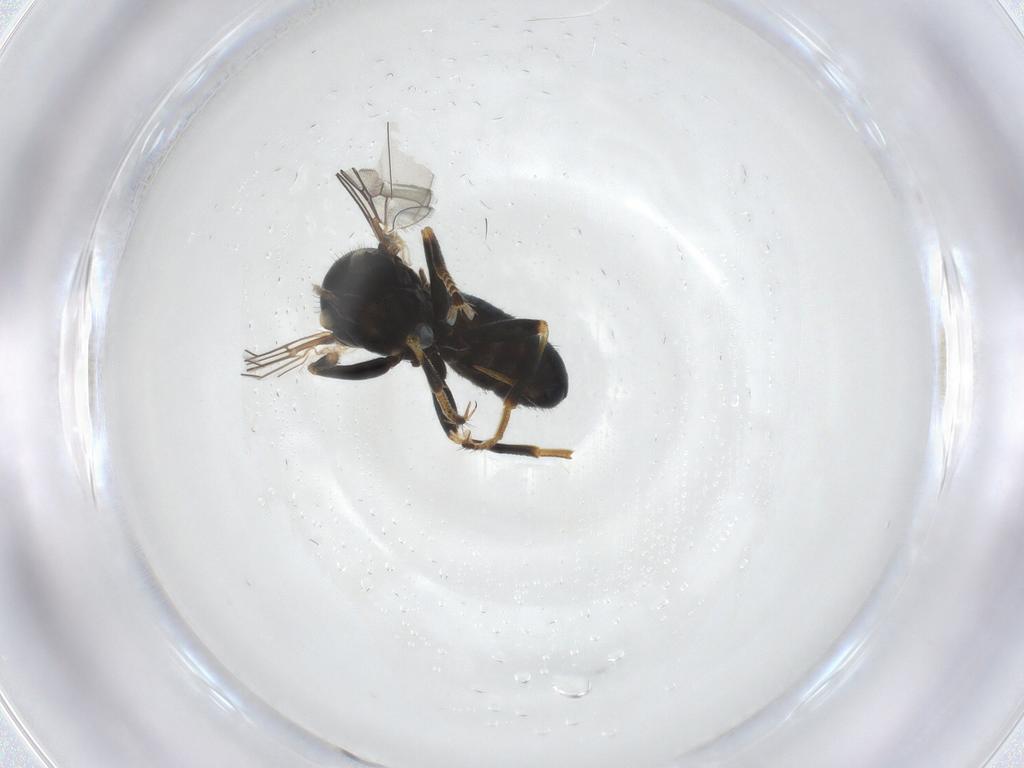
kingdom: Animalia
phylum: Arthropoda
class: Insecta
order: Diptera
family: Pipunculidae
